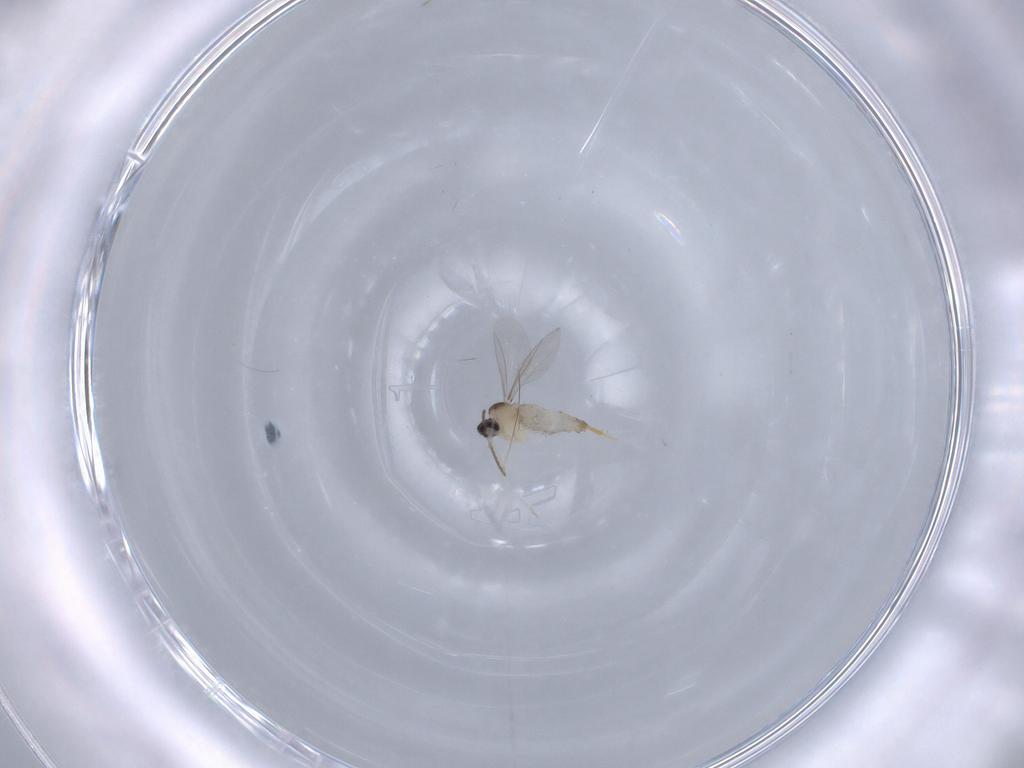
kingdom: Animalia
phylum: Arthropoda
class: Insecta
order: Diptera
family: Cecidomyiidae
